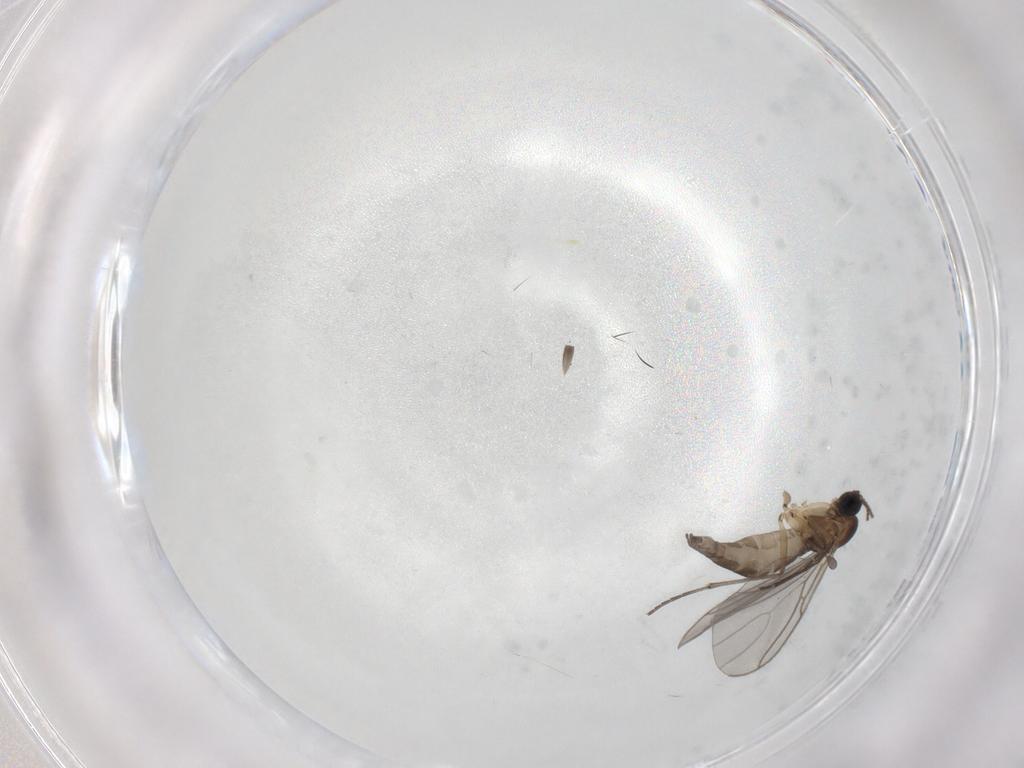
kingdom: Animalia
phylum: Arthropoda
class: Insecta
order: Diptera
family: Sciaridae
